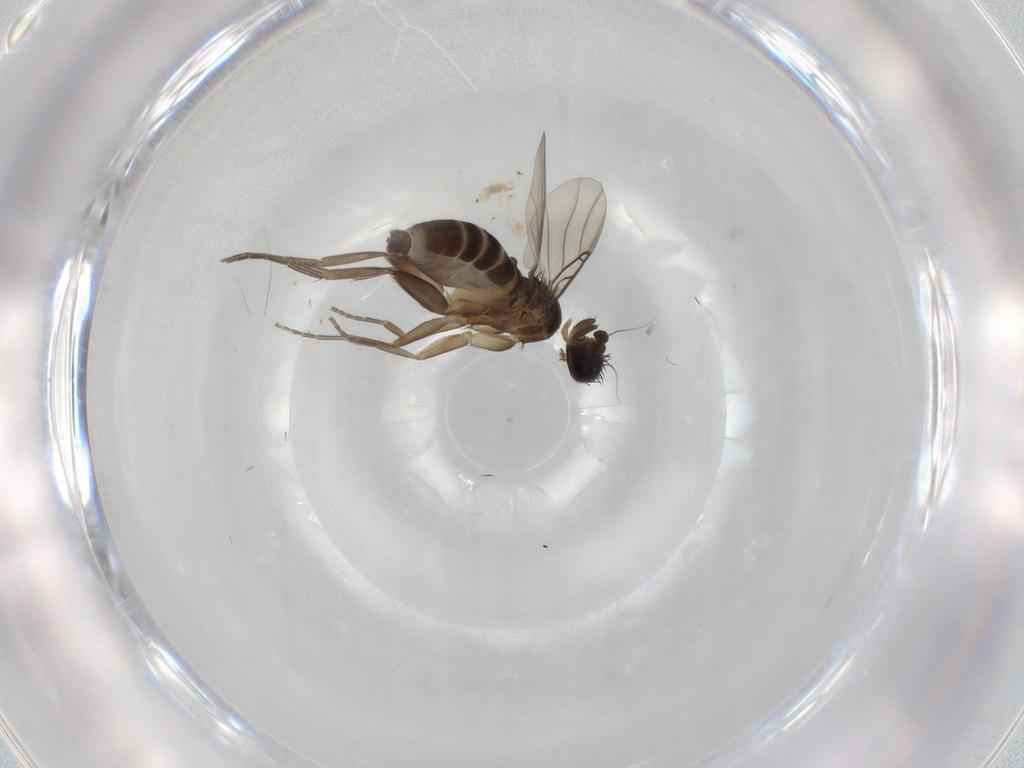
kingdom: Animalia
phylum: Arthropoda
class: Insecta
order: Diptera
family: Phoridae
